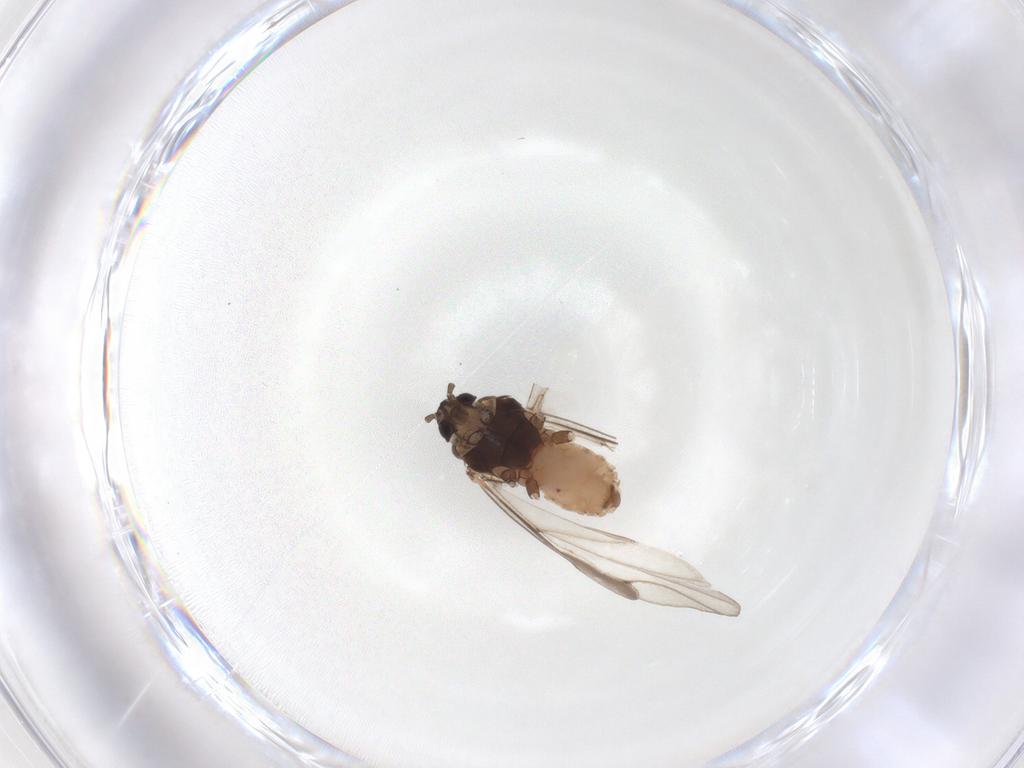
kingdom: Animalia
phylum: Arthropoda
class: Insecta
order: Hemiptera
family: Aphididae
